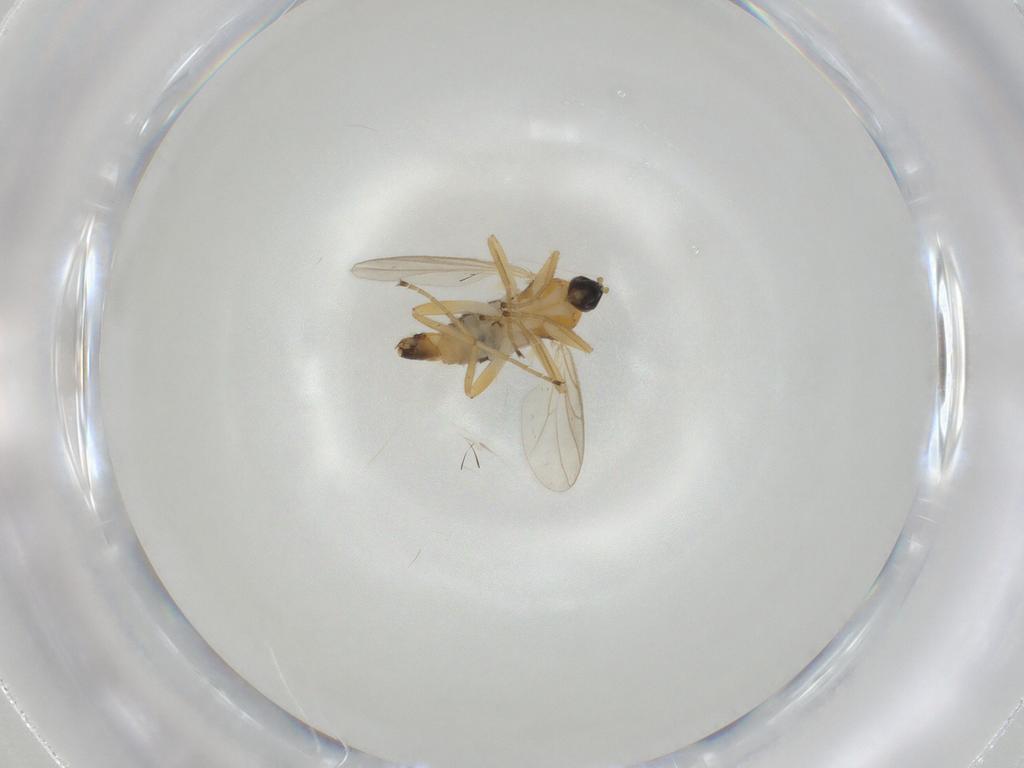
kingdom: Animalia
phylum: Arthropoda
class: Insecta
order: Diptera
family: Hybotidae
